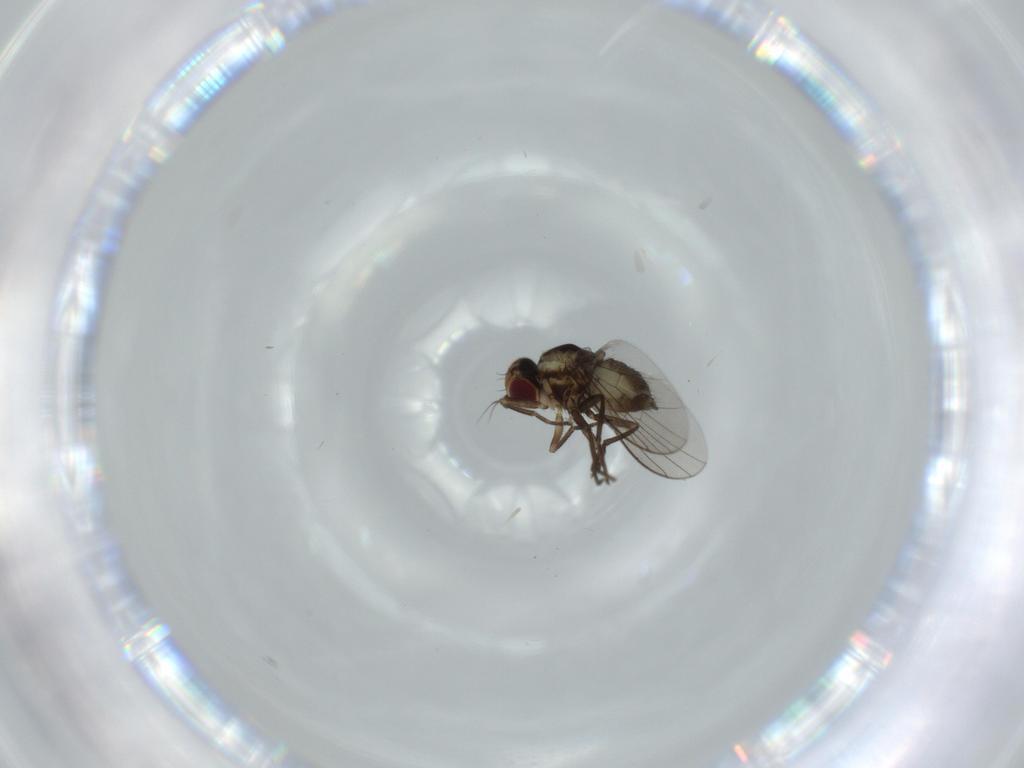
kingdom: Animalia
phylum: Arthropoda
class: Insecta
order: Diptera
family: Agromyzidae
